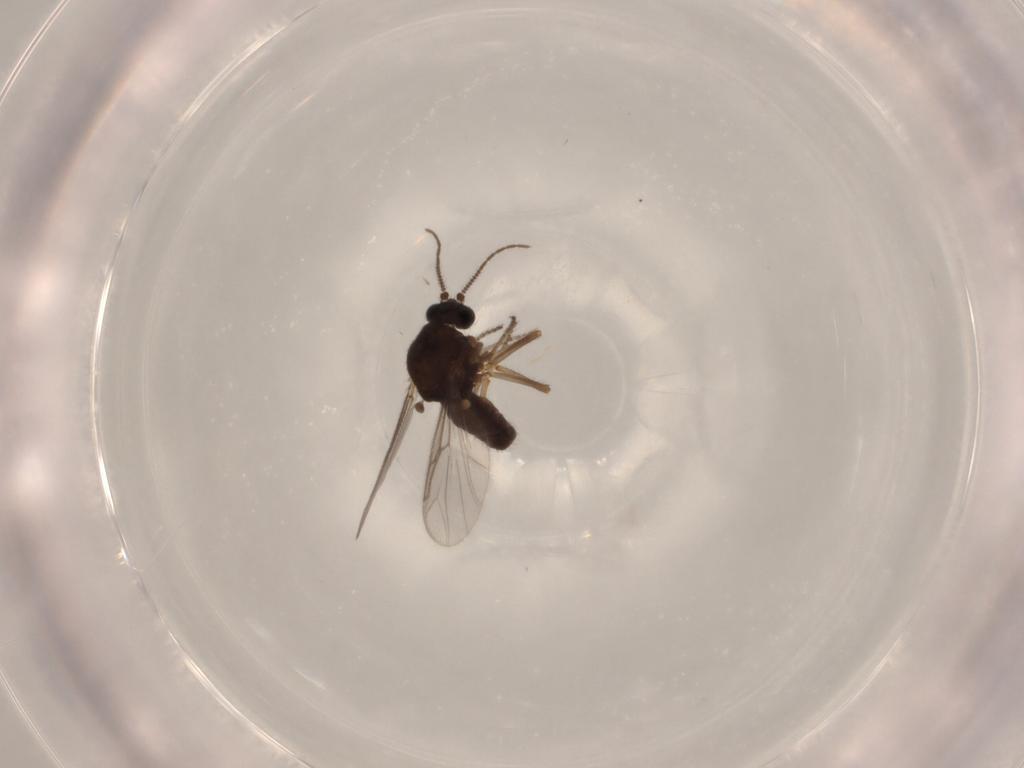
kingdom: Animalia
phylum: Arthropoda
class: Insecta
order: Diptera
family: Ceratopogonidae
